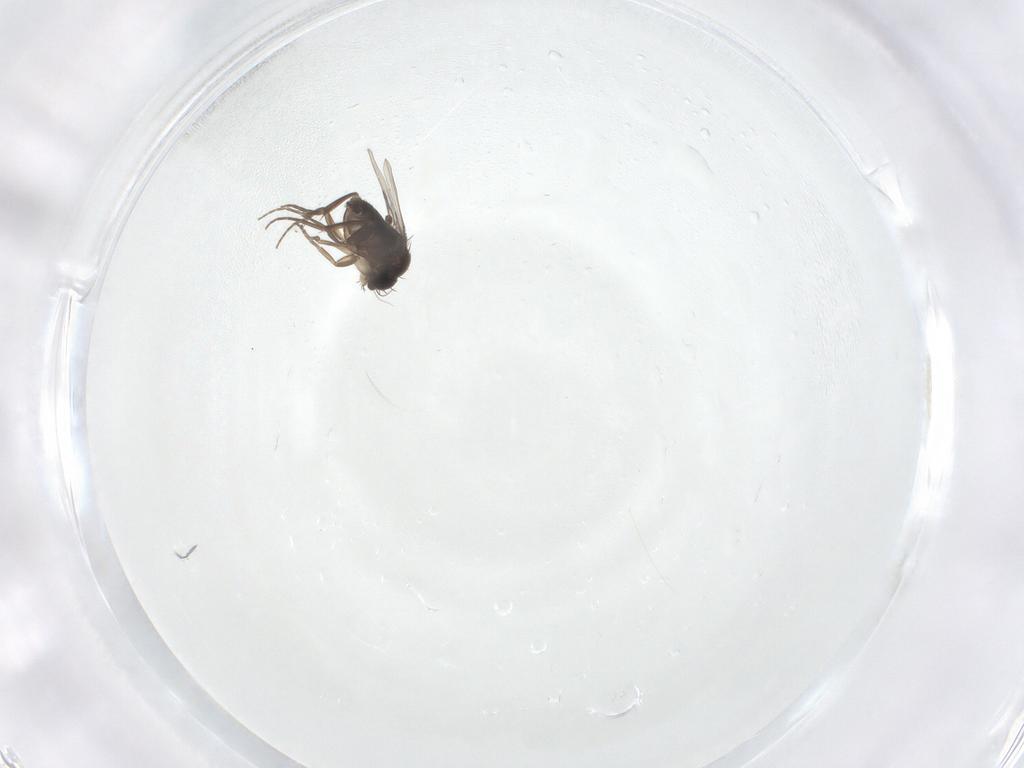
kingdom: Animalia
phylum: Arthropoda
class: Insecta
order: Diptera
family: Phoridae
